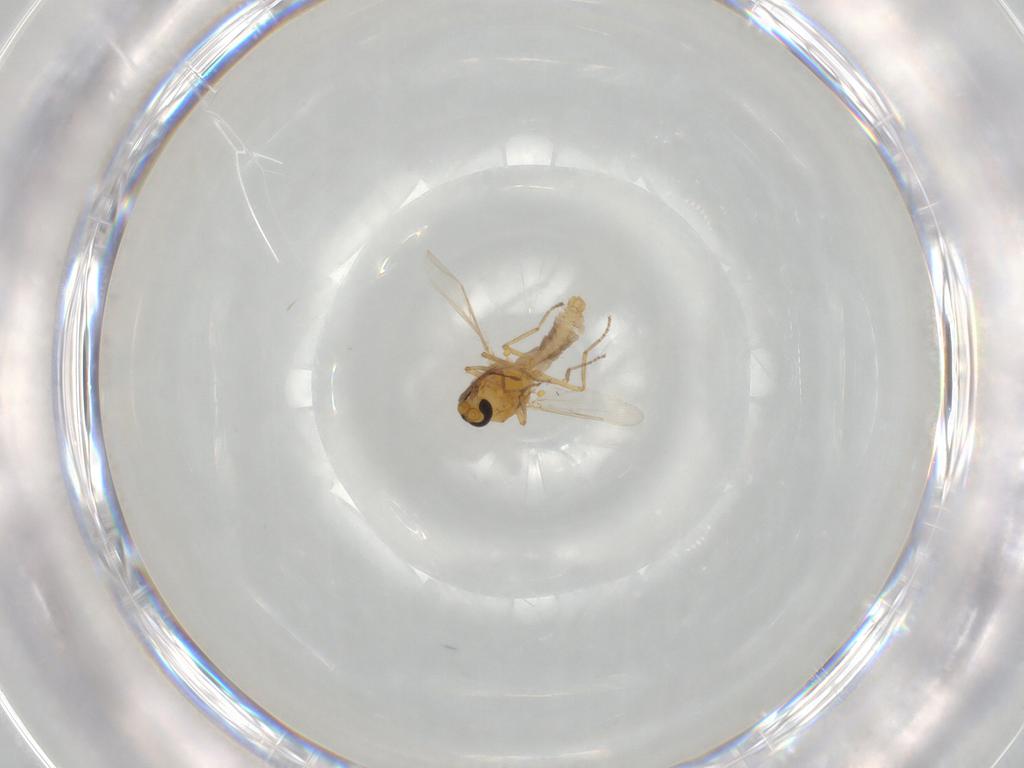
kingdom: Animalia
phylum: Arthropoda
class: Insecta
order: Diptera
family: Ceratopogonidae
